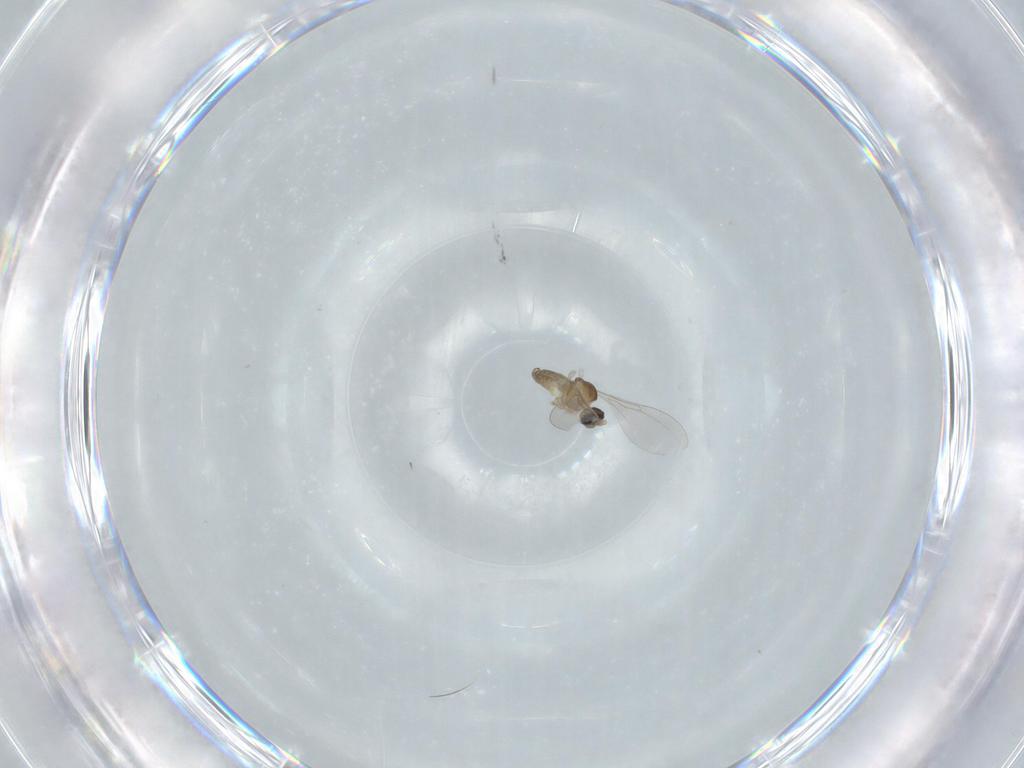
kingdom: Animalia
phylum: Arthropoda
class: Insecta
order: Diptera
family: Cecidomyiidae
